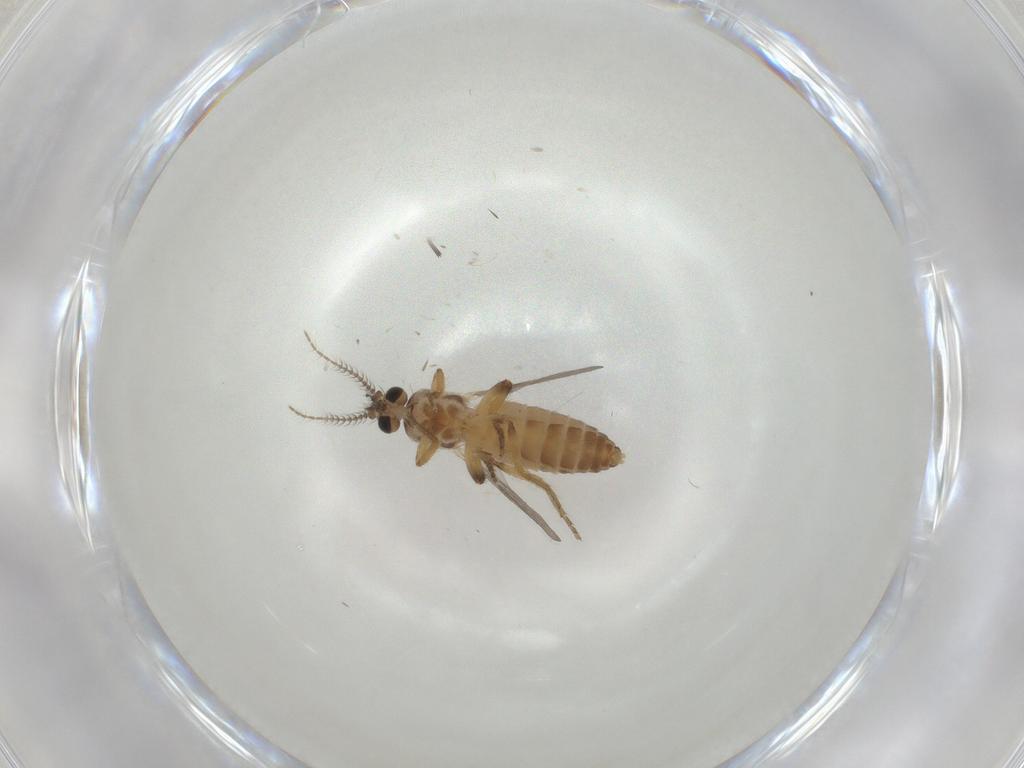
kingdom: Animalia
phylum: Arthropoda
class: Insecta
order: Diptera
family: Ceratopogonidae
